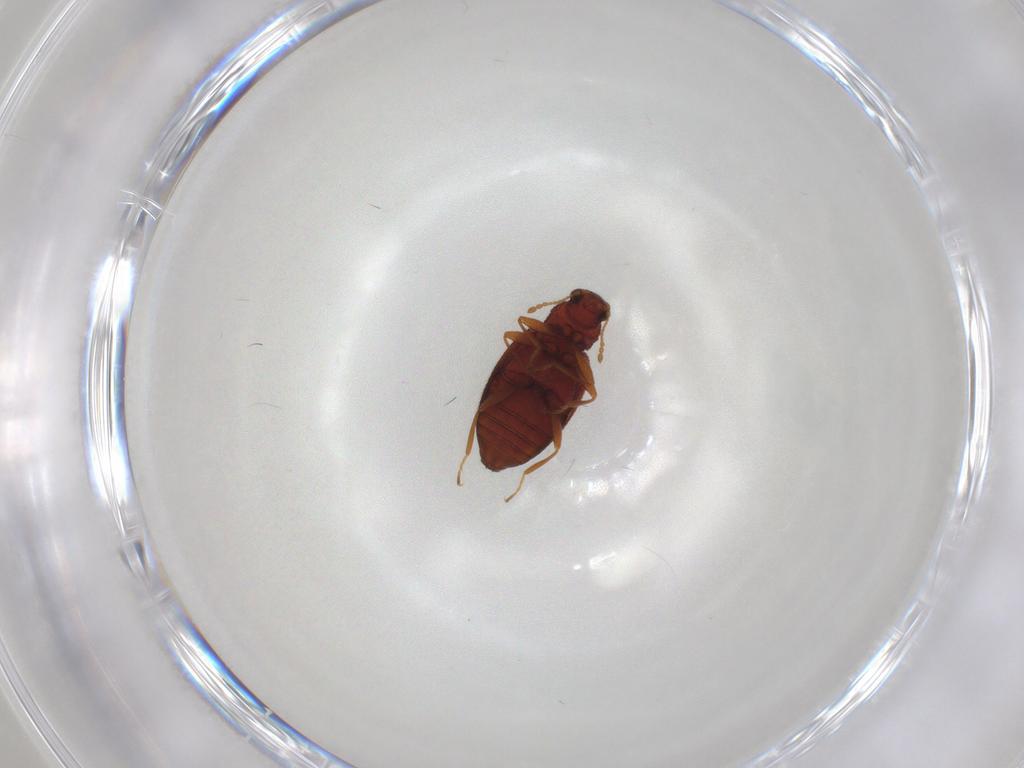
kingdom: Animalia
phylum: Arthropoda
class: Insecta
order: Coleoptera
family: Latridiidae
